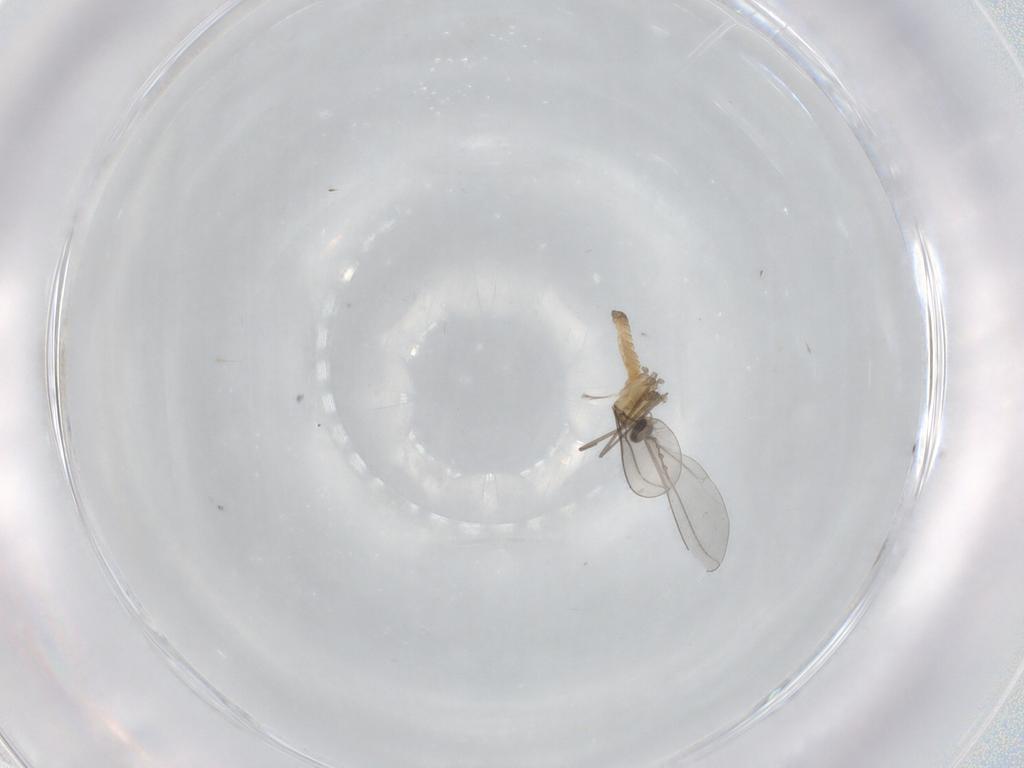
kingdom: Animalia
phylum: Arthropoda
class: Insecta
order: Diptera
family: Cecidomyiidae
